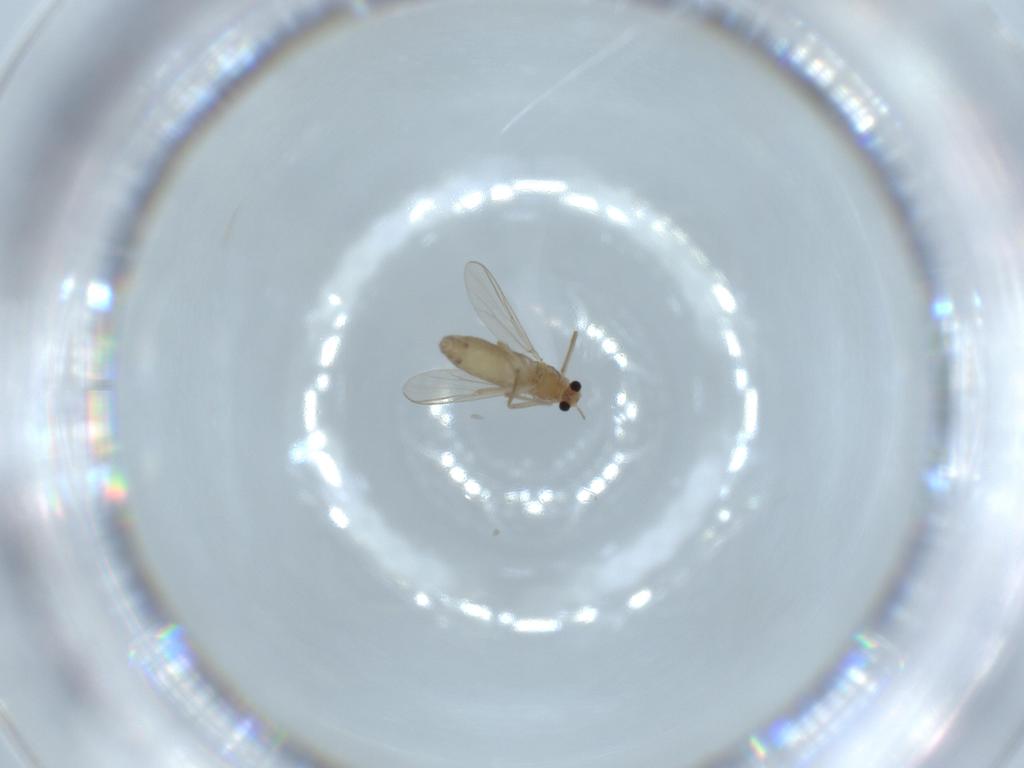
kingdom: Animalia
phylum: Arthropoda
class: Insecta
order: Diptera
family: Chironomidae
